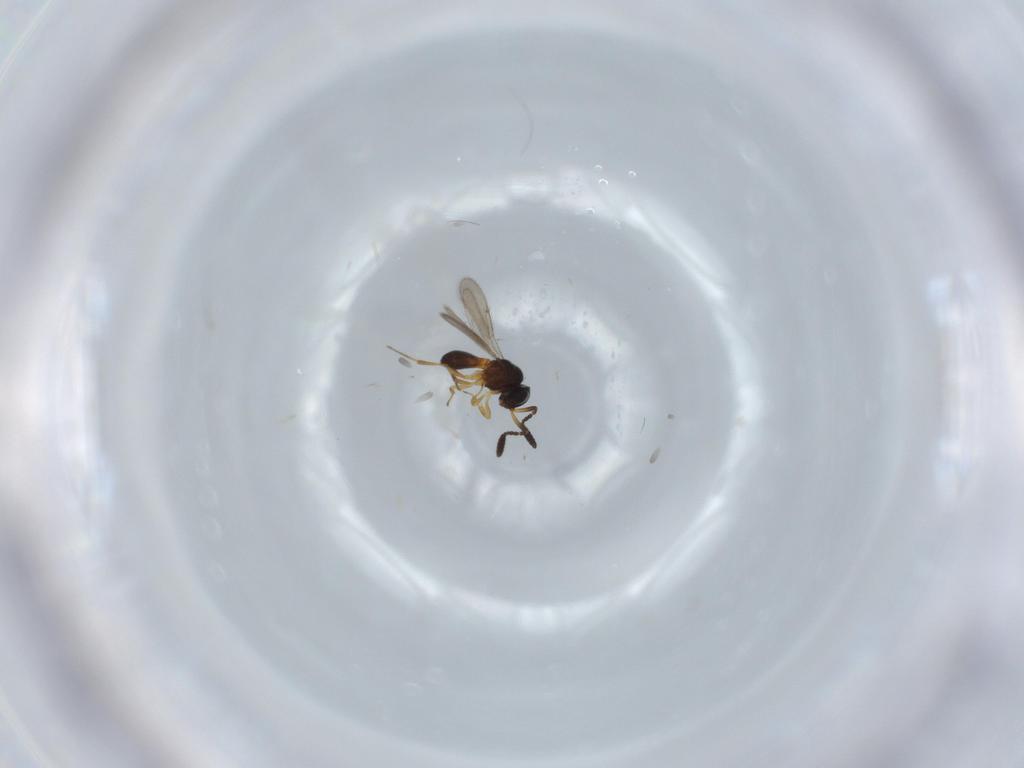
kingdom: Animalia
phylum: Arthropoda
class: Insecta
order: Hymenoptera
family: Scelionidae
